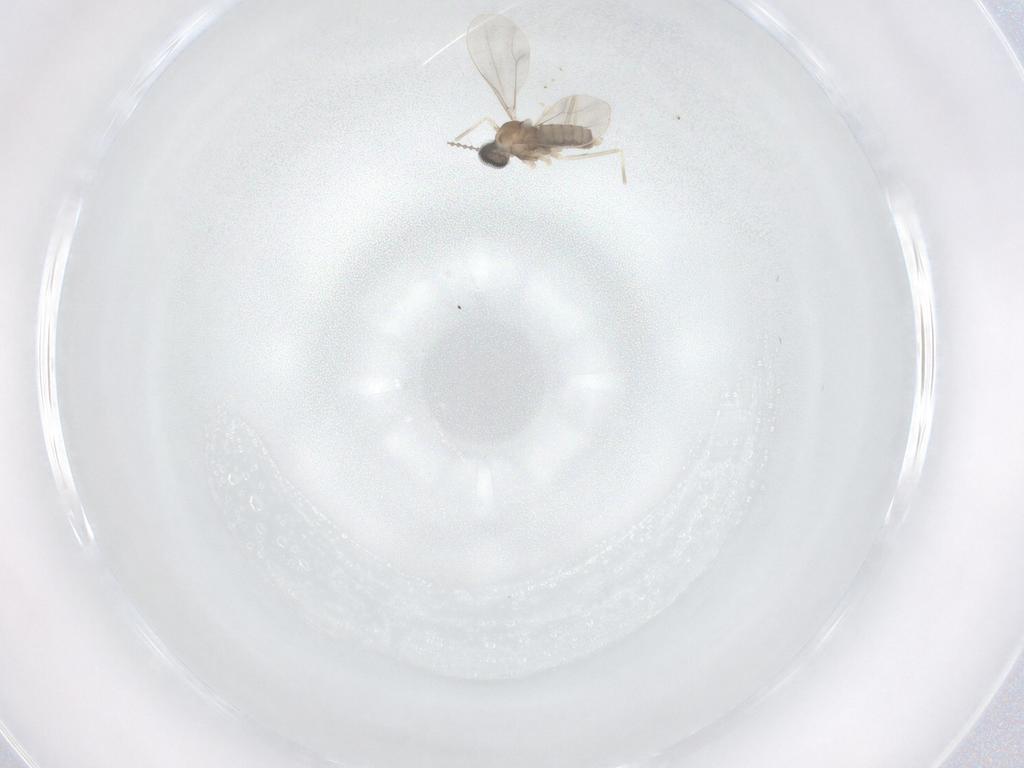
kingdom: Animalia
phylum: Arthropoda
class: Insecta
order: Diptera
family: Cecidomyiidae
